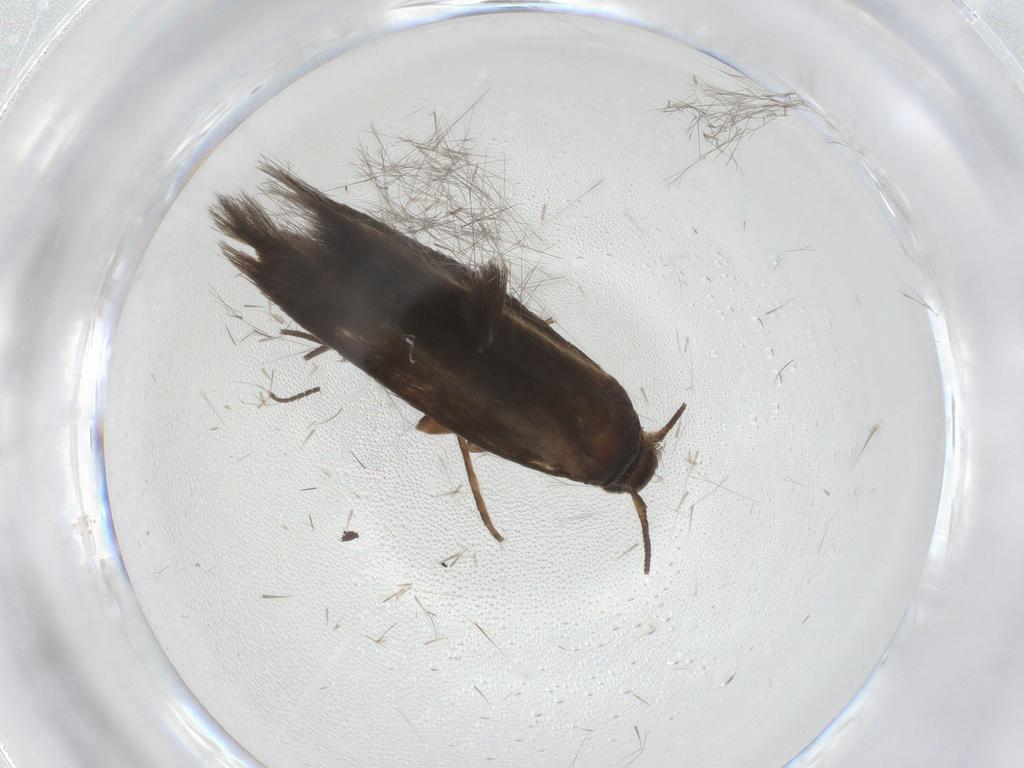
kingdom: Animalia
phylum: Arthropoda
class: Insecta
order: Lepidoptera
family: Scythrididae
